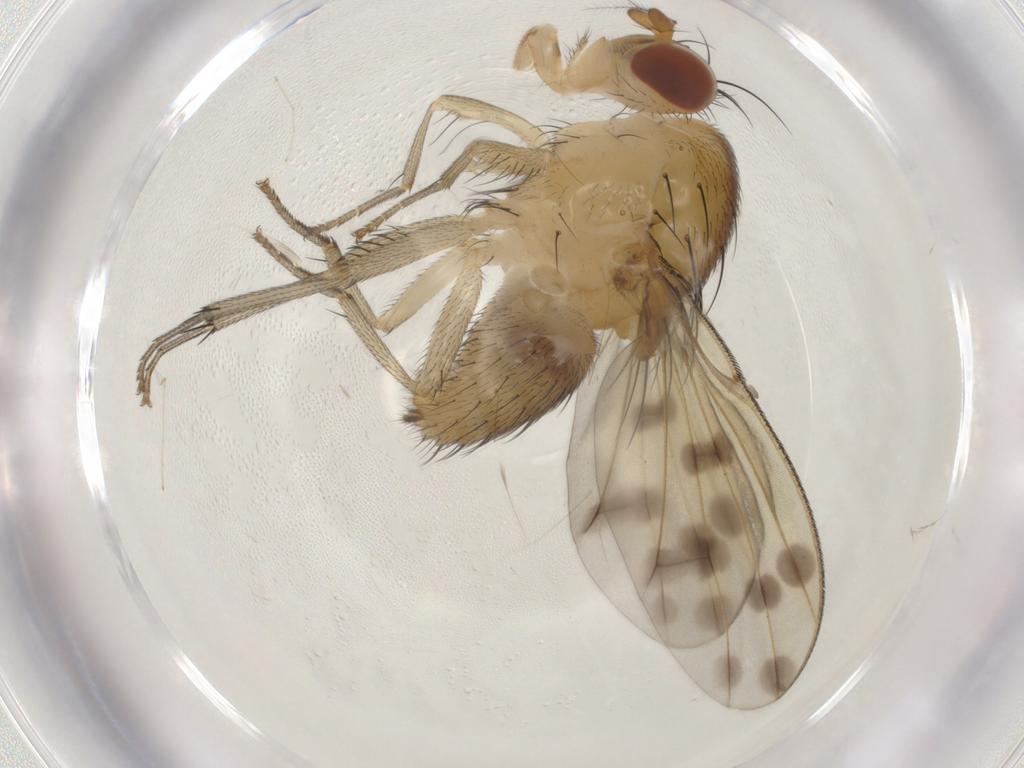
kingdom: Animalia
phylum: Arthropoda
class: Insecta
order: Diptera
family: Cecidomyiidae
